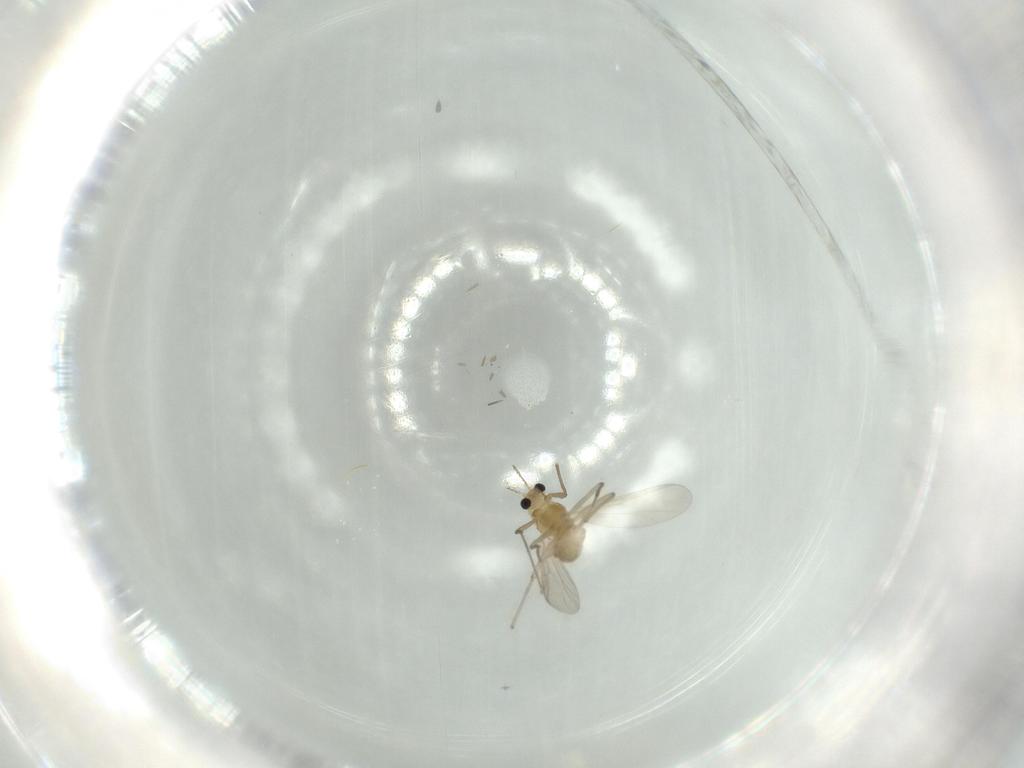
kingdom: Animalia
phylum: Arthropoda
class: Insecta
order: Diptera
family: Chironomidae
